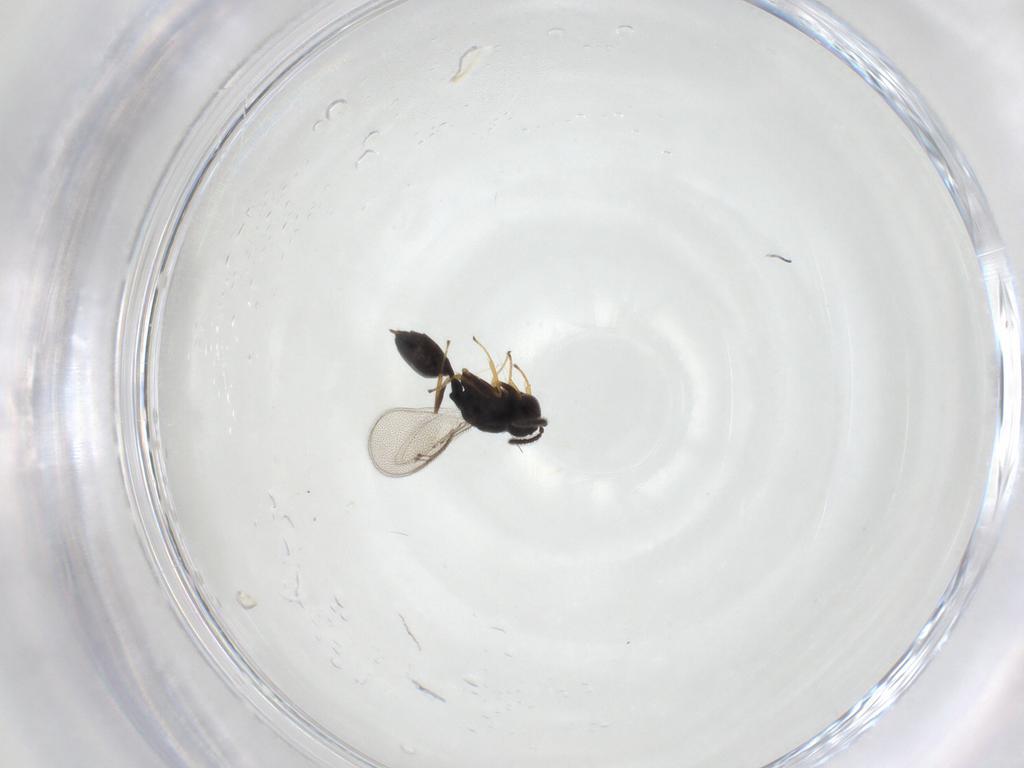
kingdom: Animalia
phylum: Arthropoda
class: Insecta
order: Hymenoptera
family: Pteromalidae
